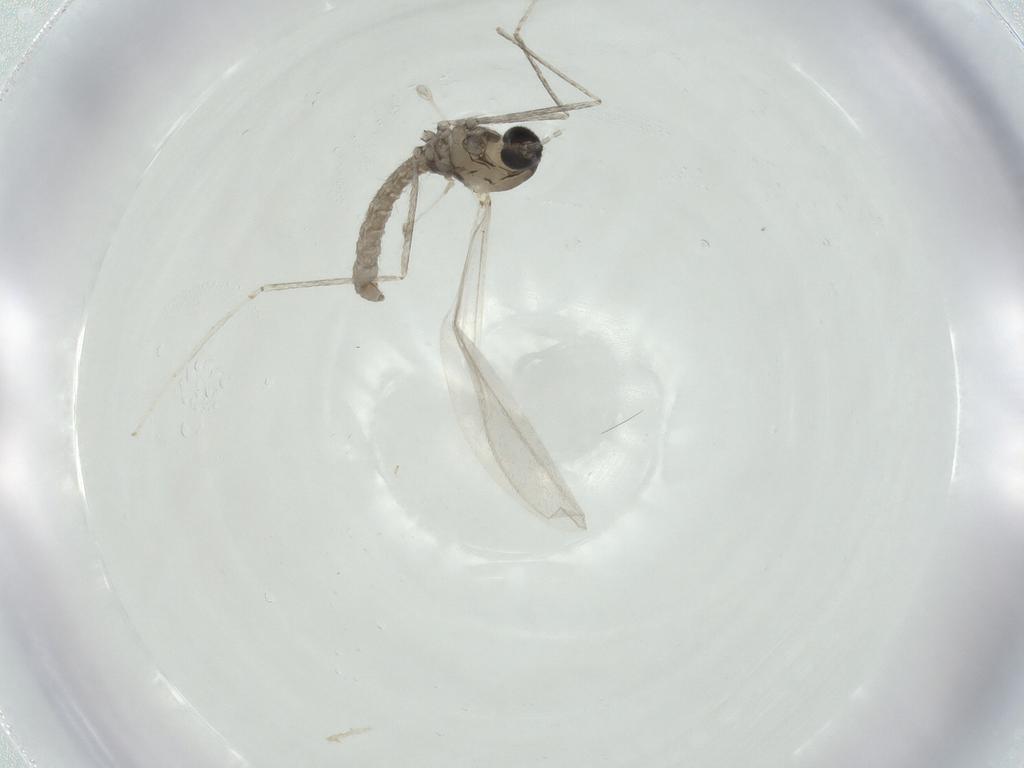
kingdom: Animalia
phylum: Arthropoda
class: Insecta
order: Diptera
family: Cecidomyiidae
